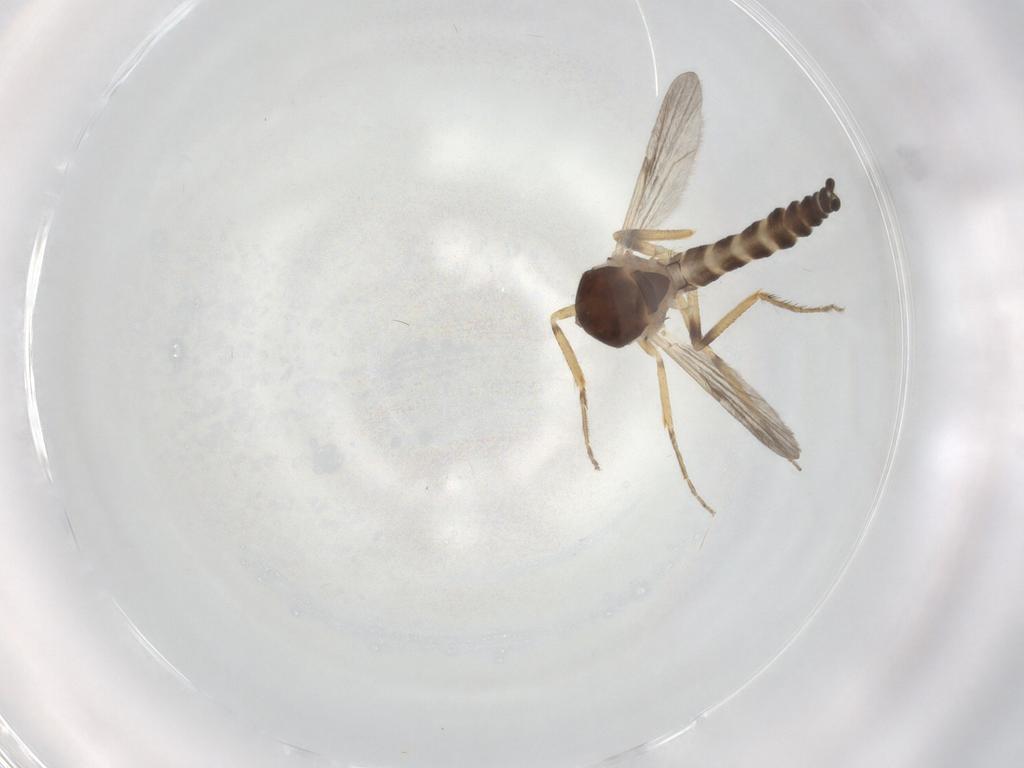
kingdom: Animalia
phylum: Arthropoda
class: Insecta
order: Diptera
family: Ceratopogonidae
